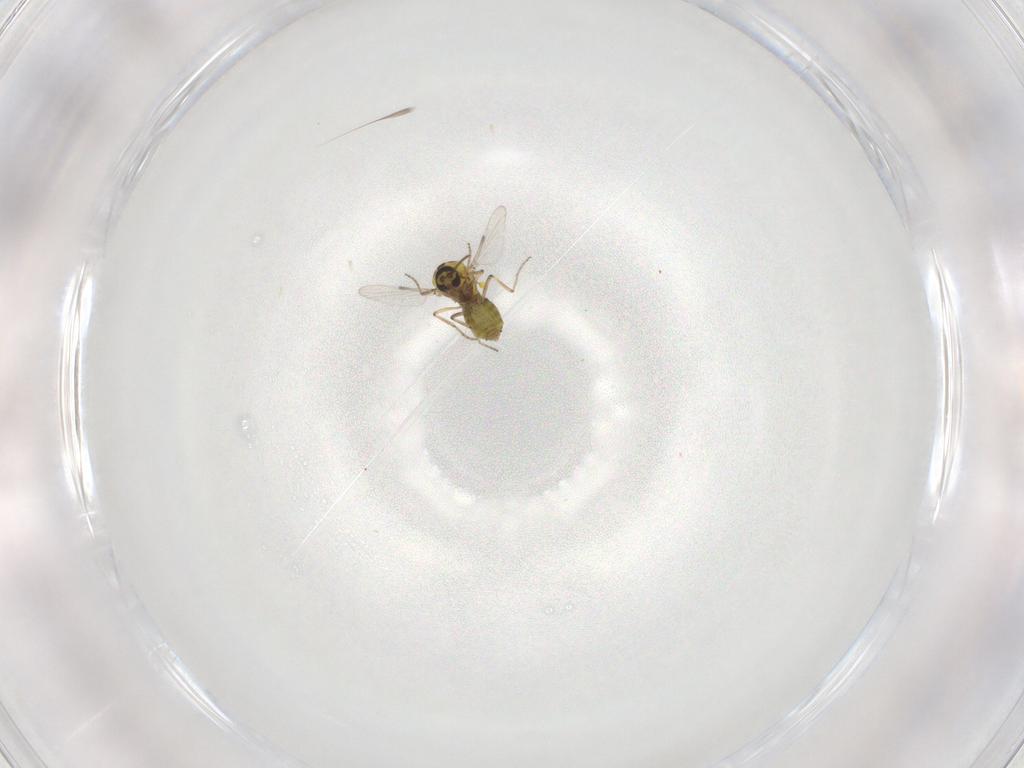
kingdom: Animalia
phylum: Arthropoda
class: Insecta
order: Diptera
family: Ceratopogonidae
